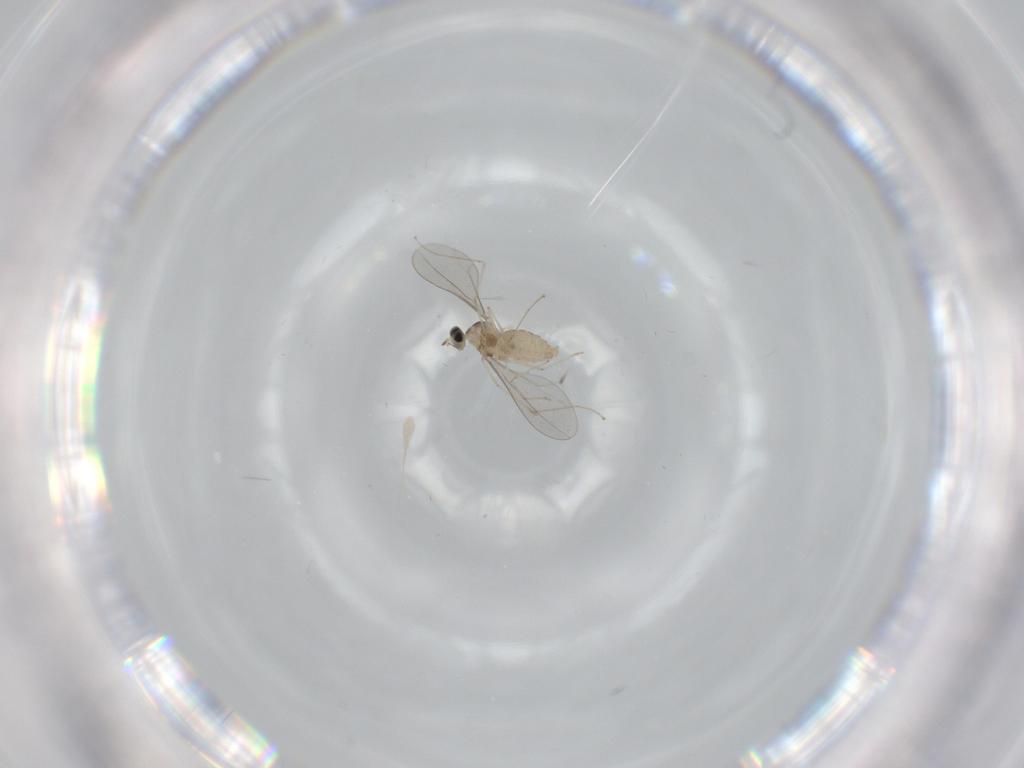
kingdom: Animalia
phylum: Arthropoda
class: Insecta
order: Diptera
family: Cecidomyiidae
